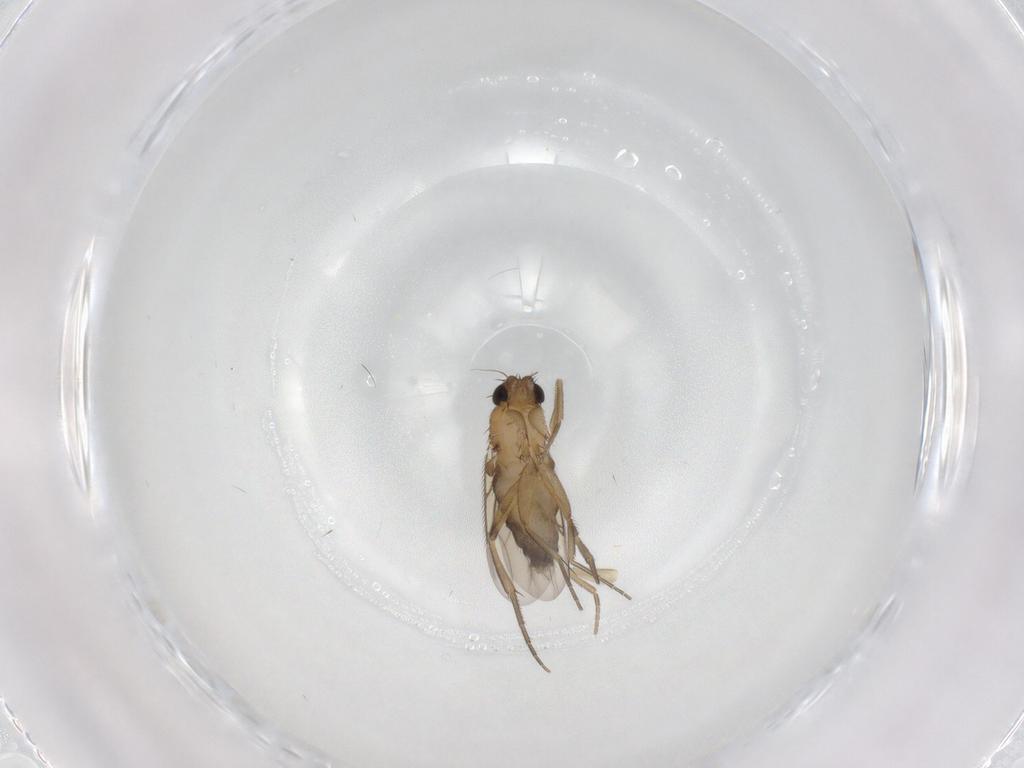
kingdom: Animalia
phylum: Arthropoda
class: Insecta
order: Diptera
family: Phoridae
